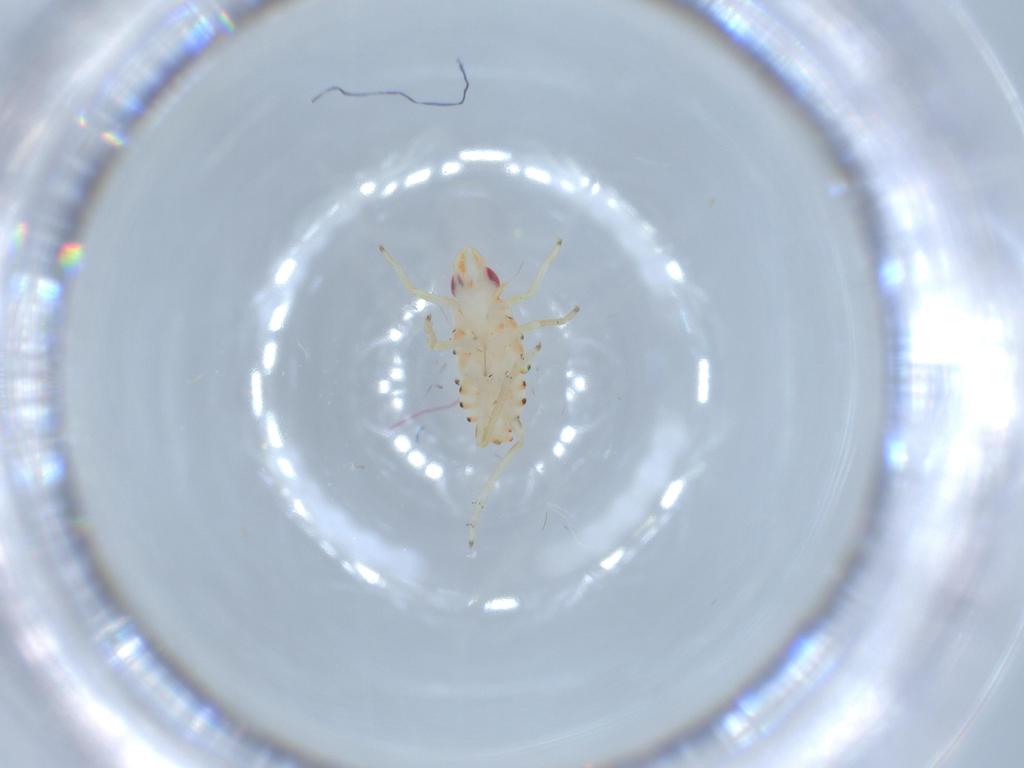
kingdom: Animalia
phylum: Arthropoda
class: Insecta
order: Hemiptera
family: Tropiduchidae
